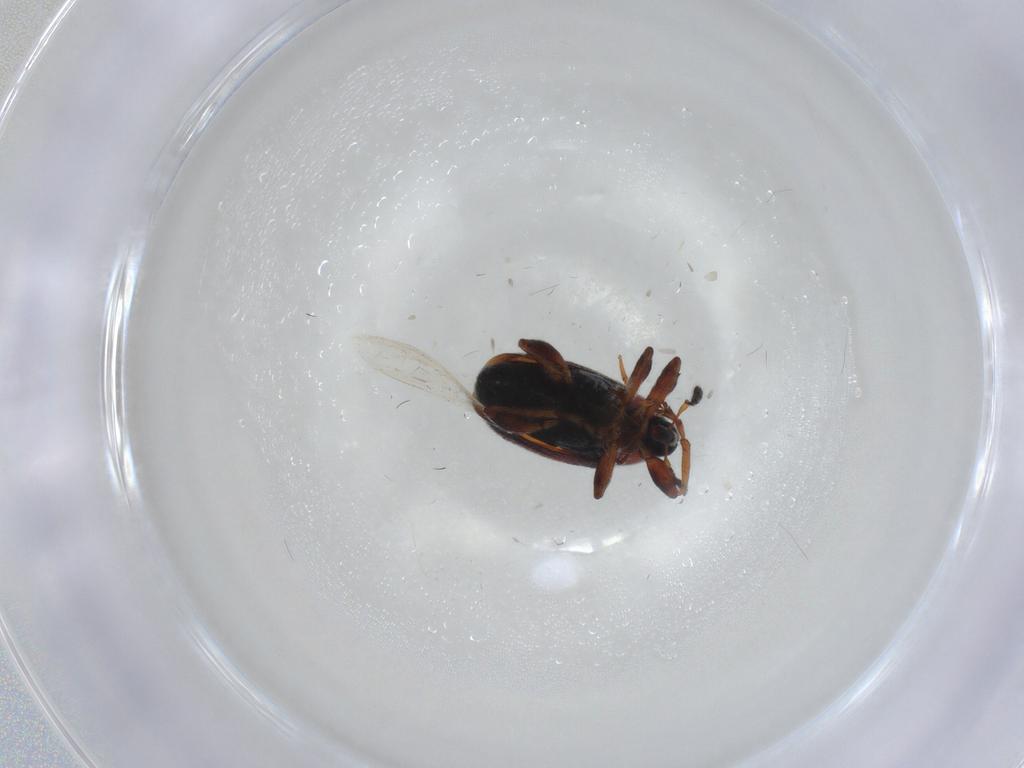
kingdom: Animalia
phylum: Arthropoda
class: Insecta
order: Coleoptera
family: Brentidae
